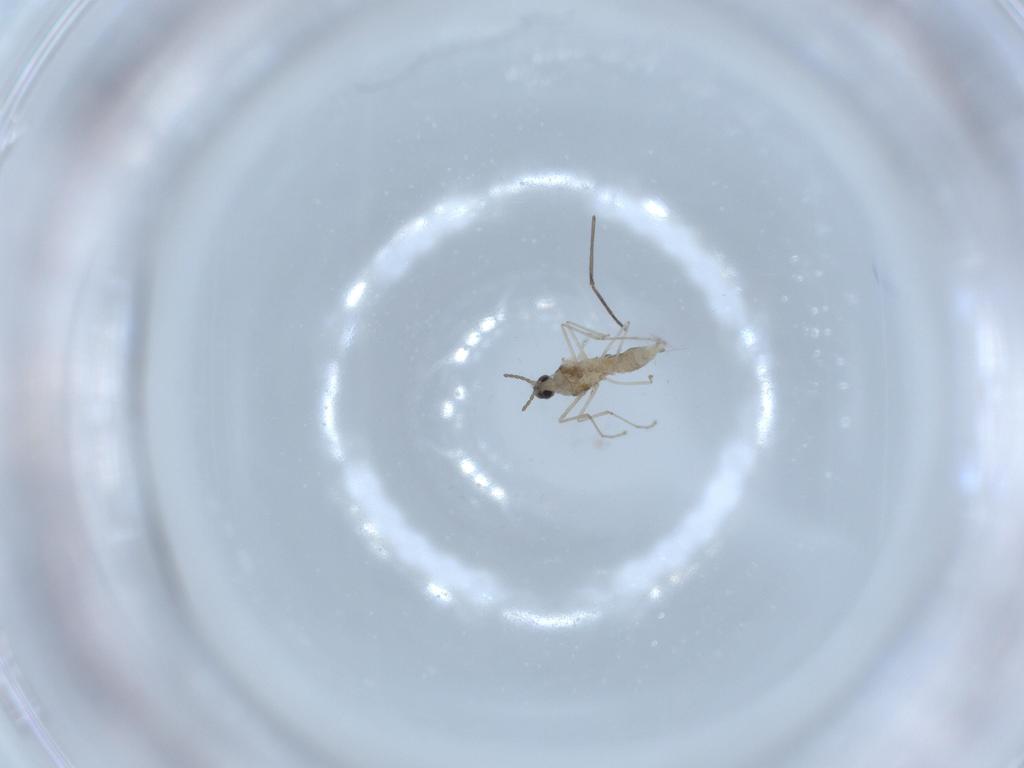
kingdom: Animalia
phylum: Arthropoda
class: Insecta
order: Diptera
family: Cecidomyiidae
